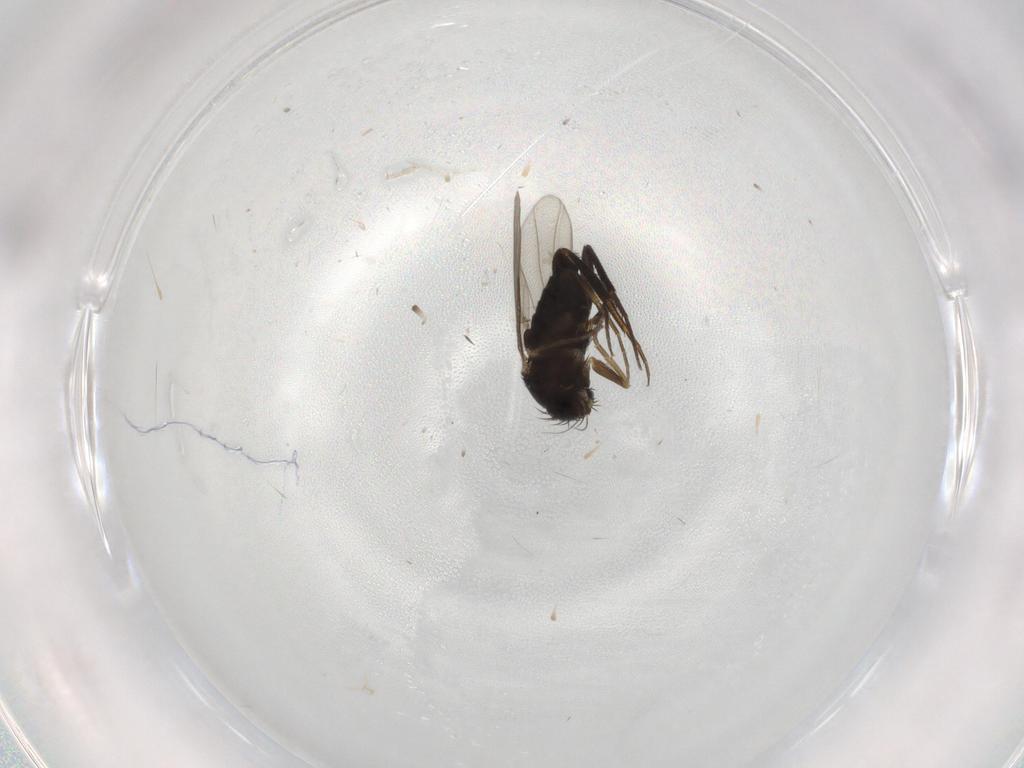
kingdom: Animalia
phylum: Arthropoda
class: Insecta
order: Diptera
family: Phoridae
